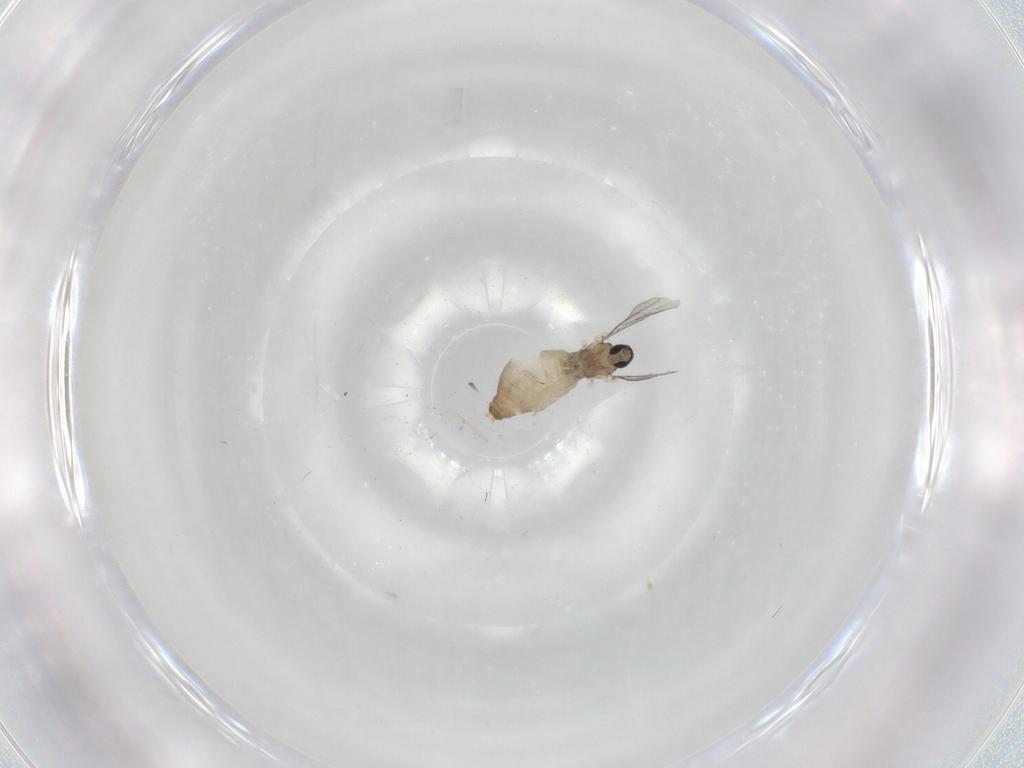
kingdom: Animalia
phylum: Arthropoda
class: Insecta
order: Diptera
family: Cecidomyiidae
